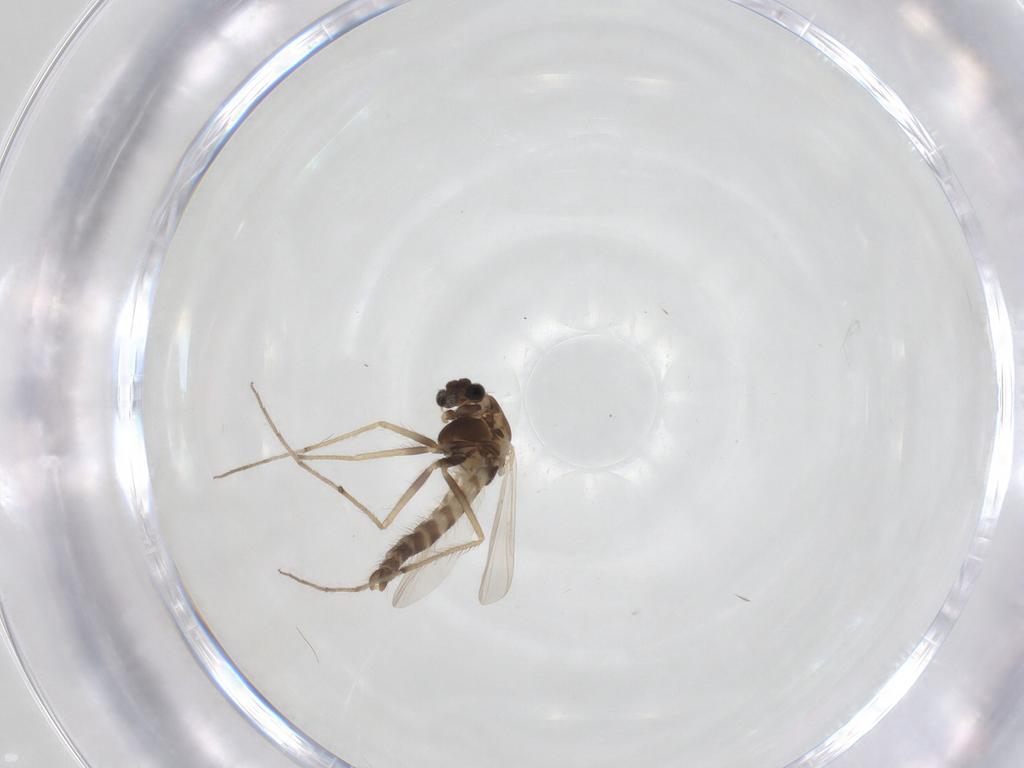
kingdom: Animalia
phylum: Arthropoda
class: Insecta
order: Diptera
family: Chironomidae
